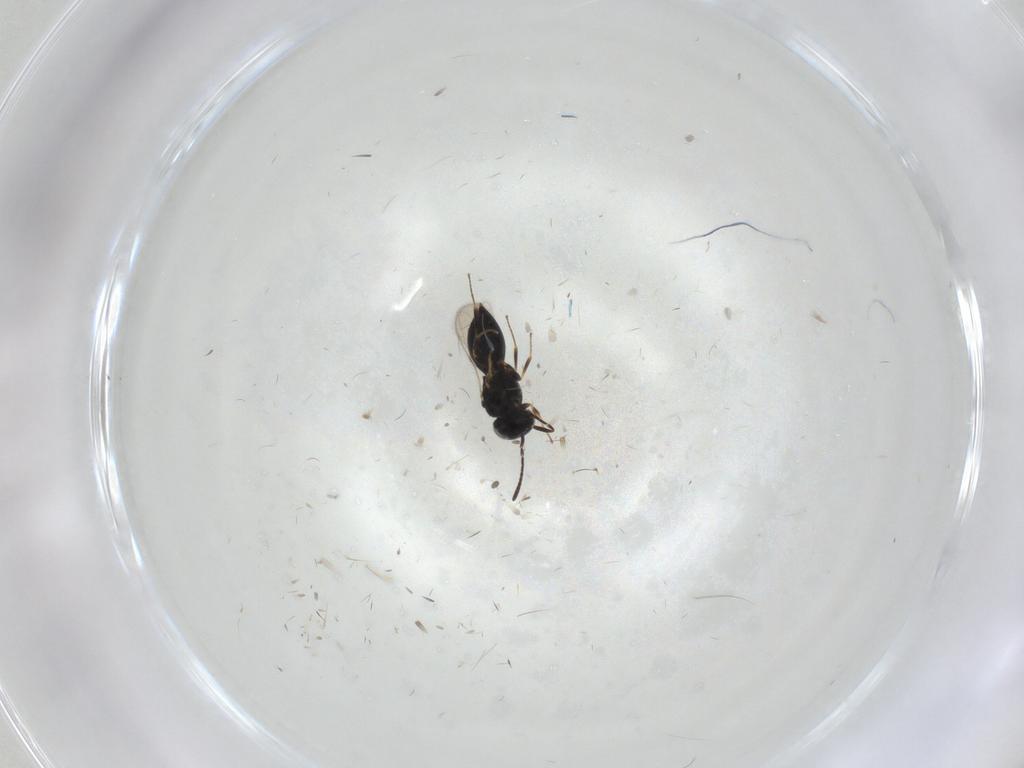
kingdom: Animalia
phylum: Arthropoda
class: Insecta
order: Hymenoptera
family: Scelionidae
